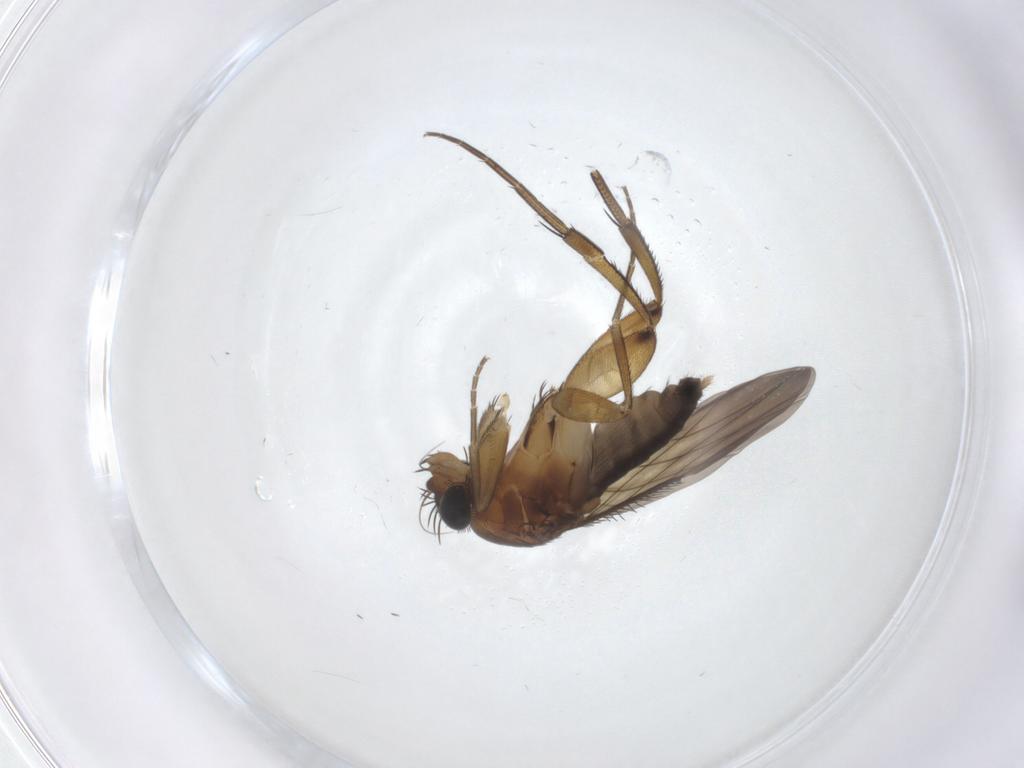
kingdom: Animalia
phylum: Arthropoda
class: Insecta
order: Diptera
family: Phoridae
